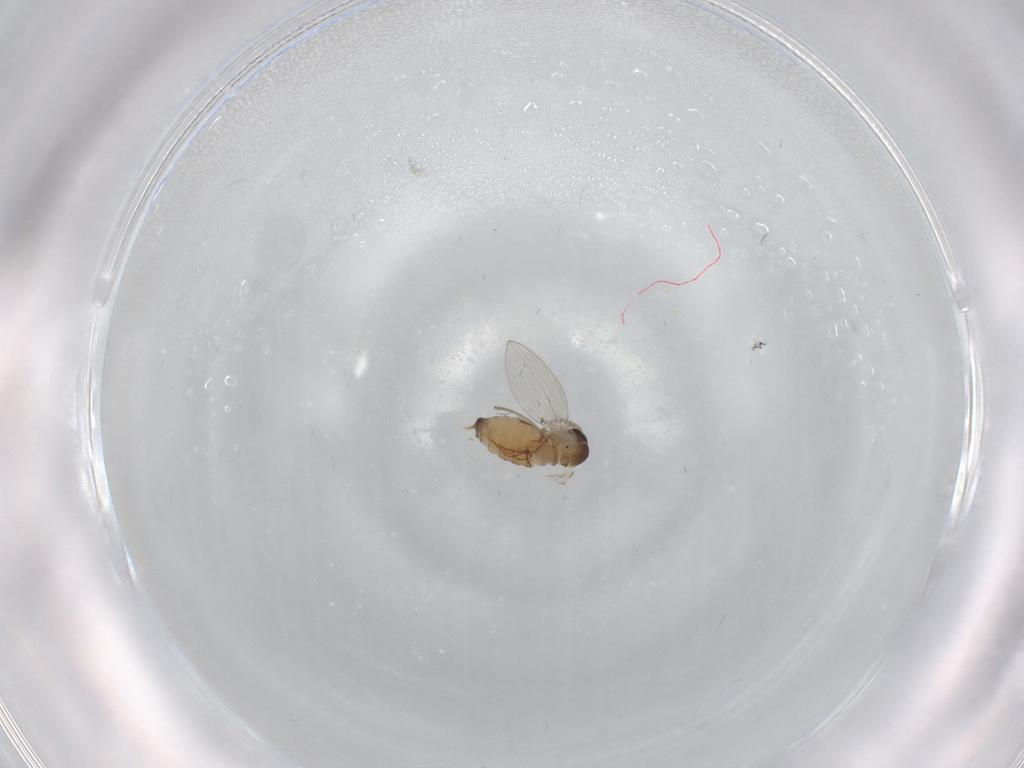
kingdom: Animalia
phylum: Arthropoda
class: Insecta
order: Diptera
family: Psychodidae
